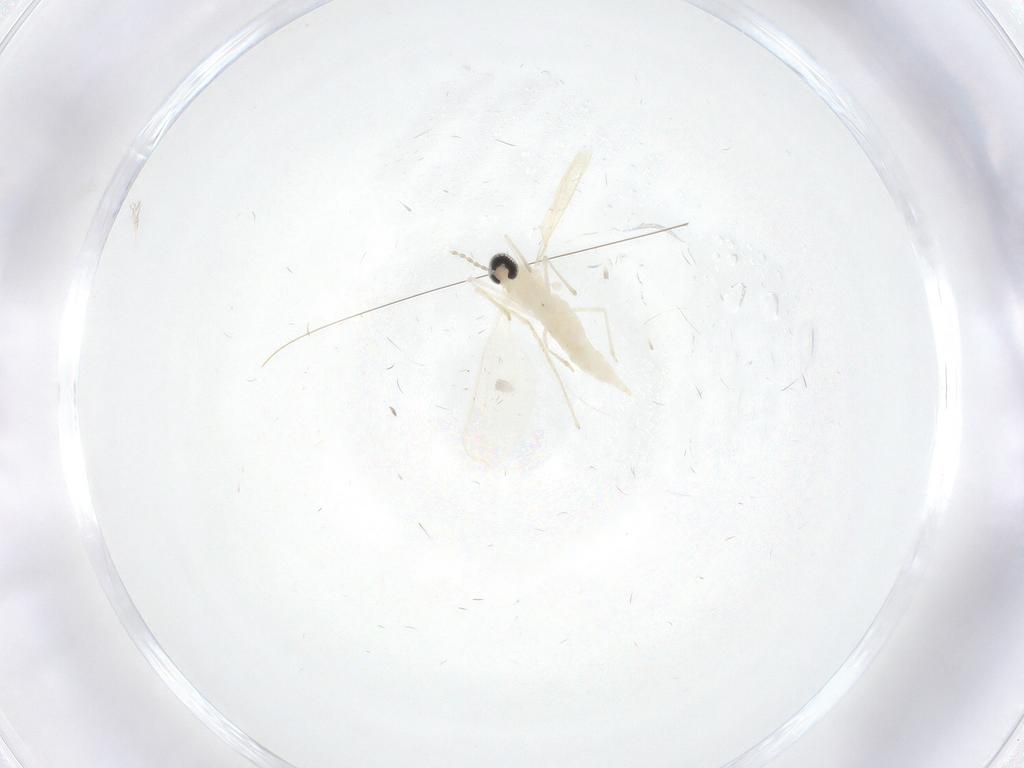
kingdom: Animalia
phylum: Arthropoda
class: Insecta
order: Diptera
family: Cecidomyiidae
